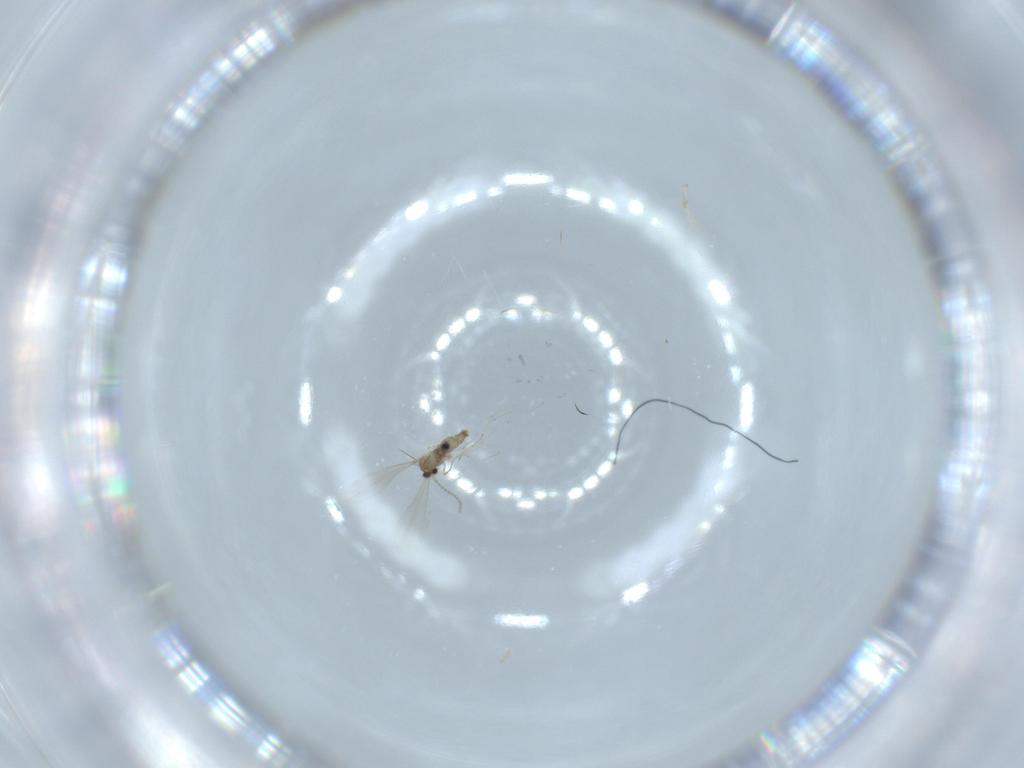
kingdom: Animalia
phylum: Arthropoda
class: Insecta
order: Diptera
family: Cecidomyiidae
